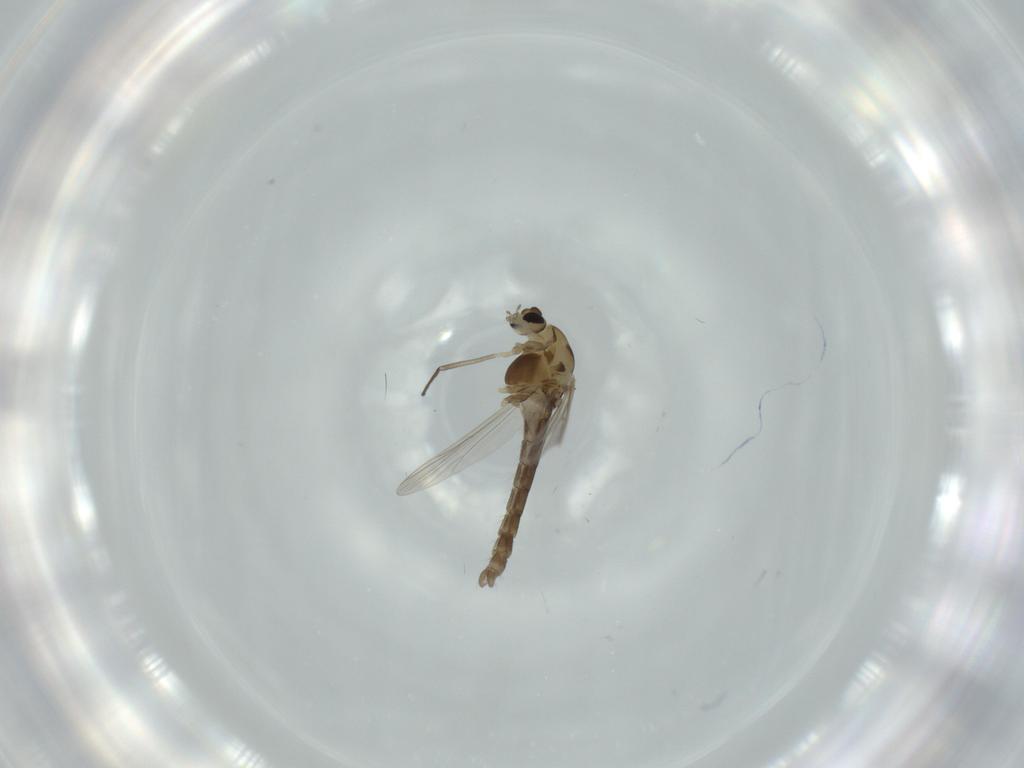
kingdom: Animalia
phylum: Arthropoda
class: Insecta
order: Diptera
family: Chironomidae
